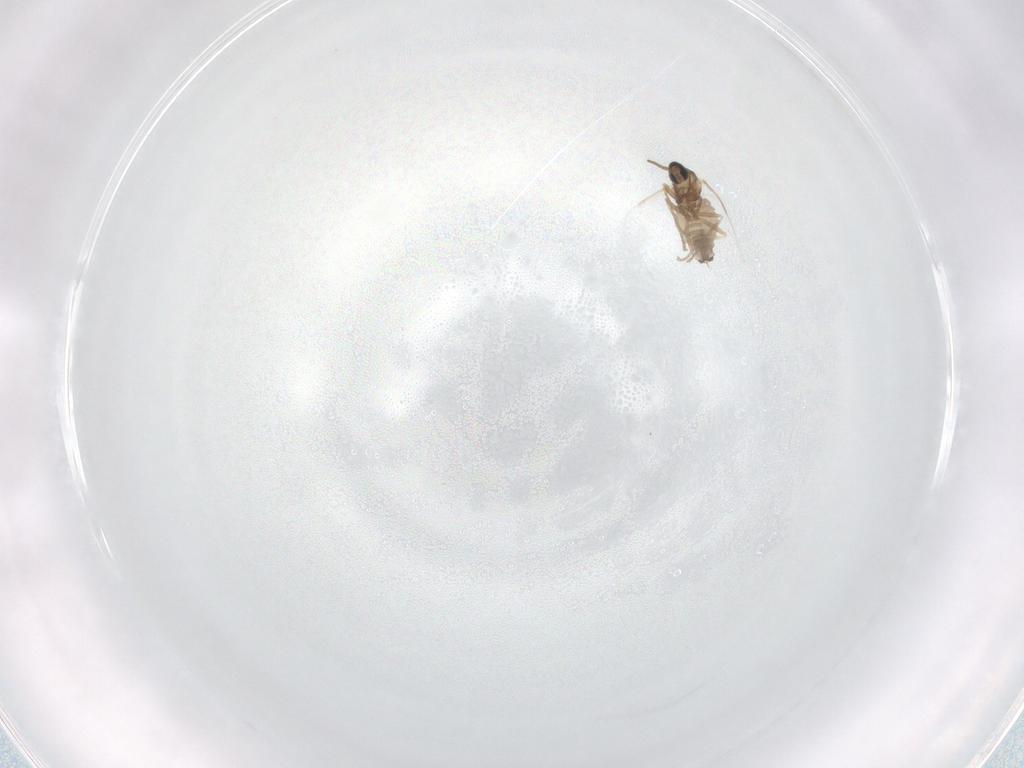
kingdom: Animalia
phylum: Arthropoda
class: Insecta
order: Diptera
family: Cecidomyiidae
